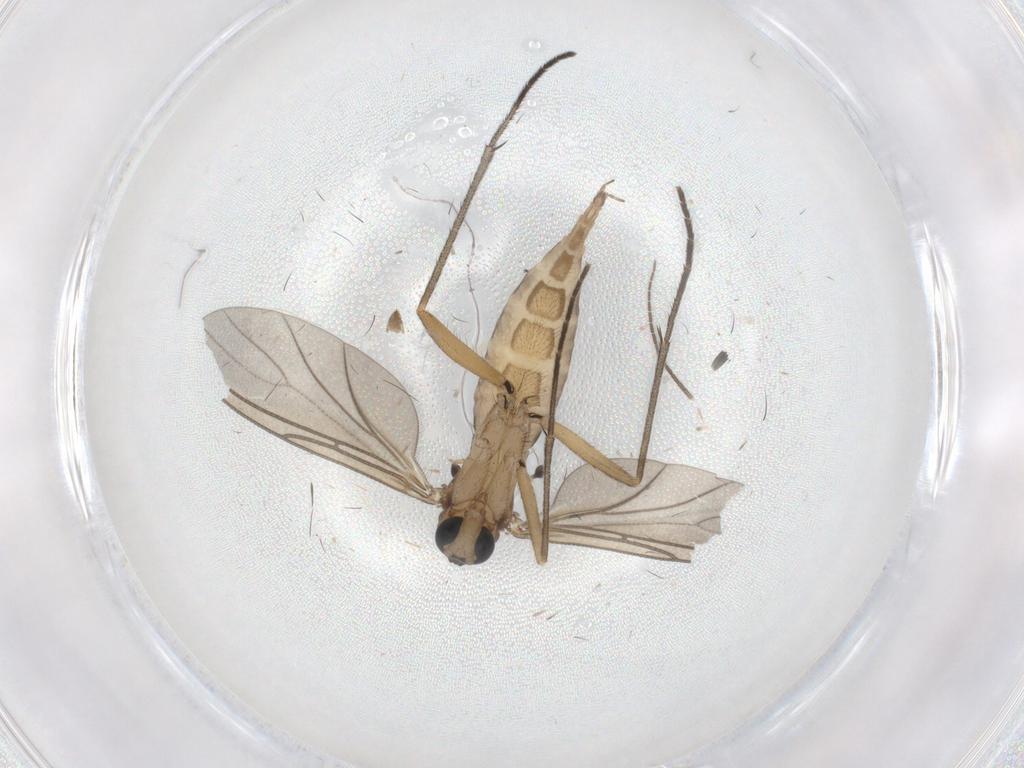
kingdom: Animalia
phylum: Arthropoda
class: Insecta
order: Diptera
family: Sciaridae
